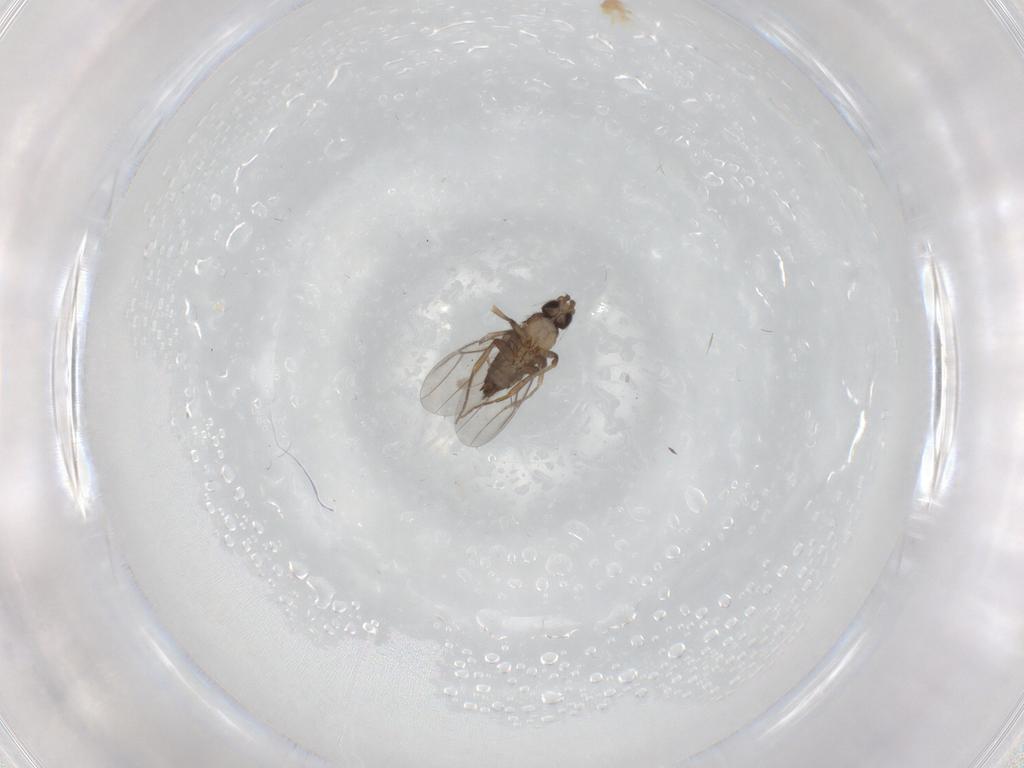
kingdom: Animalia
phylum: Arthropoda
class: Insecta
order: Diptera
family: Phoridae
